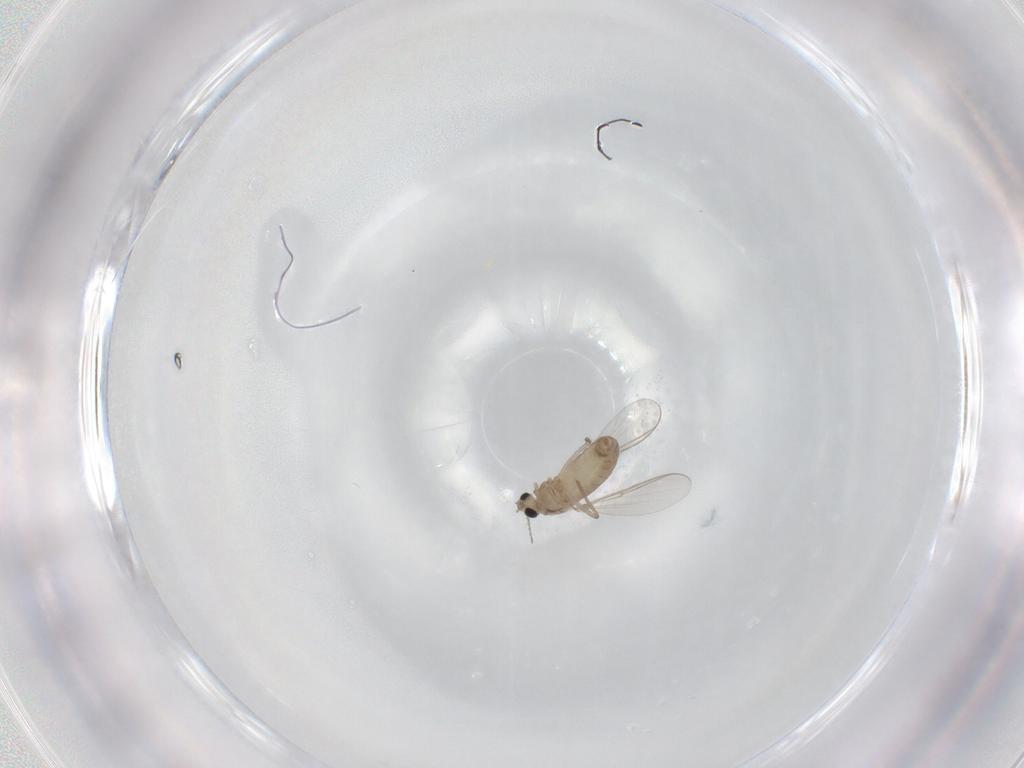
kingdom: Animalia
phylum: Arthropoda
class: Insecta
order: Diptera
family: Chironomidae
